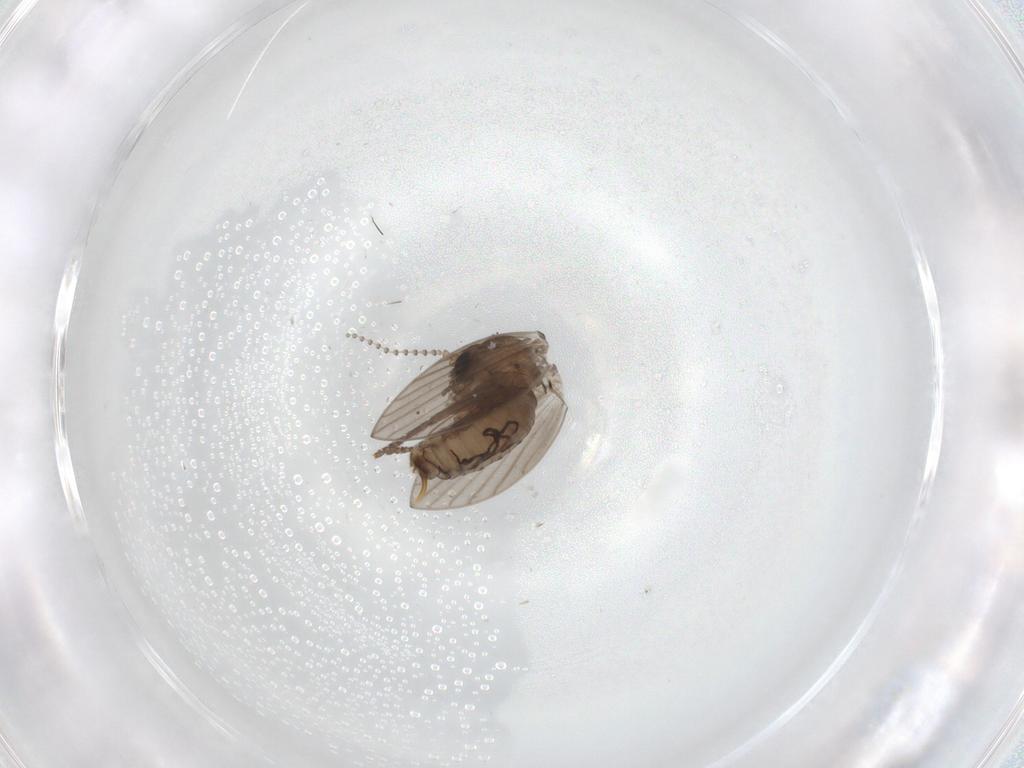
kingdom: Animalia
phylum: Arthropoda
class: Insecta
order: Diptera
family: Psychodidae
